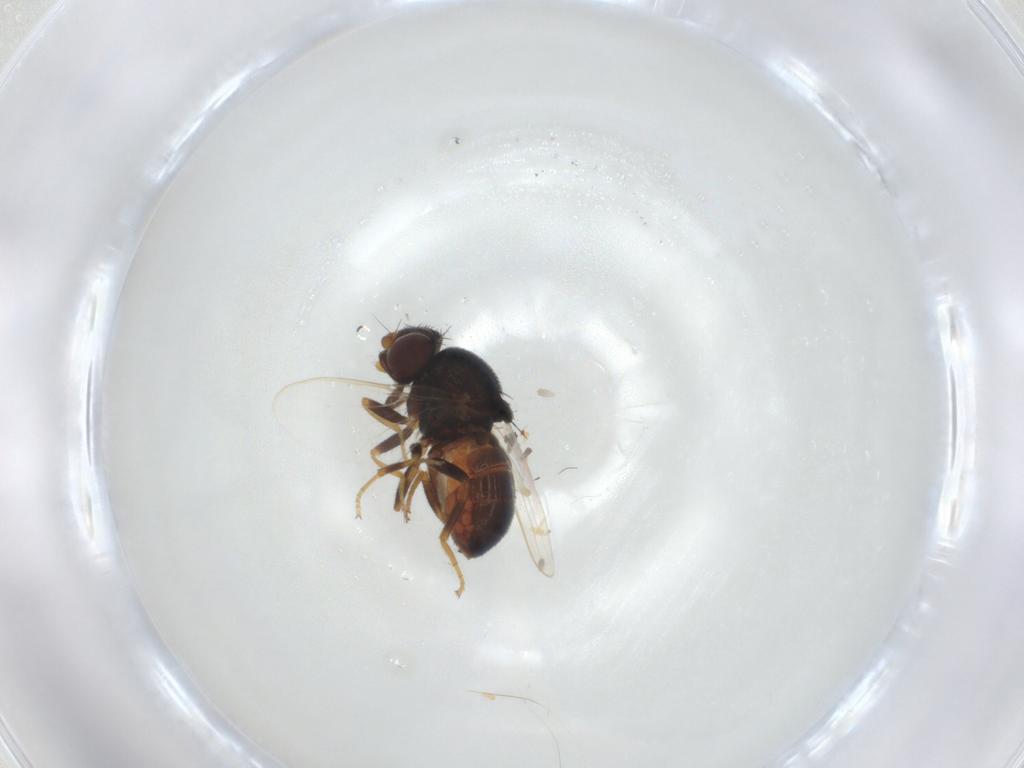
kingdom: Animalia
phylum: Arthropoda
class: Insecta
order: Diptera
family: Chloropidae
